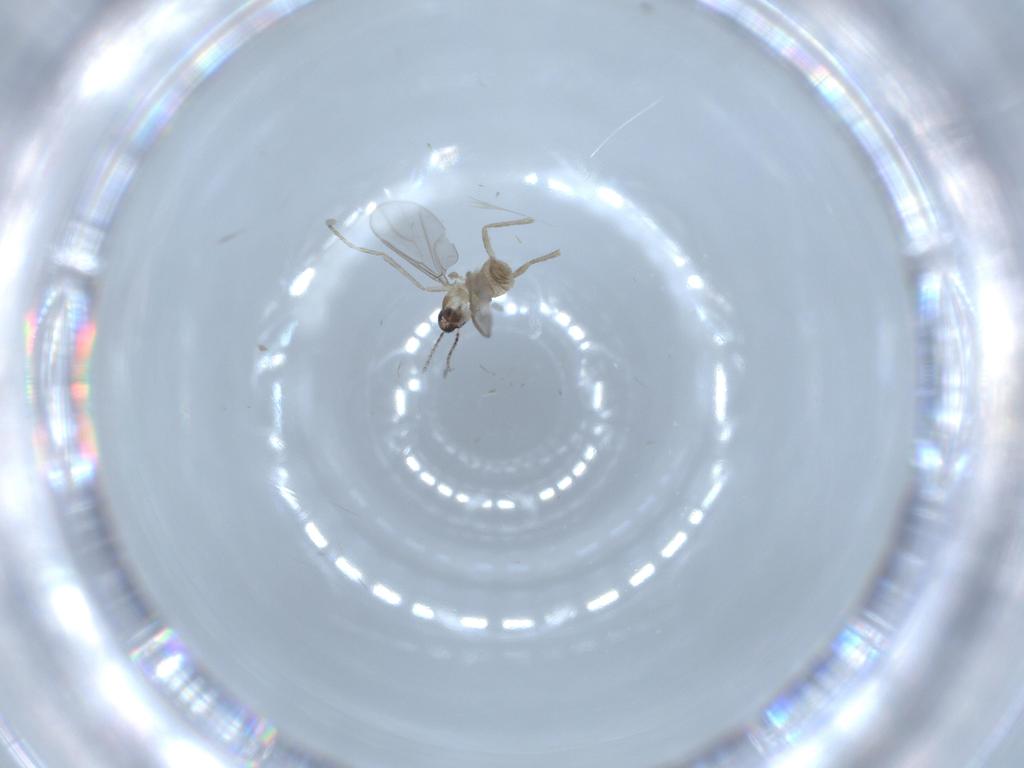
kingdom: Animalia
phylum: Arthropoda
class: Insecta
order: Diptera
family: Cecidomyiidae
